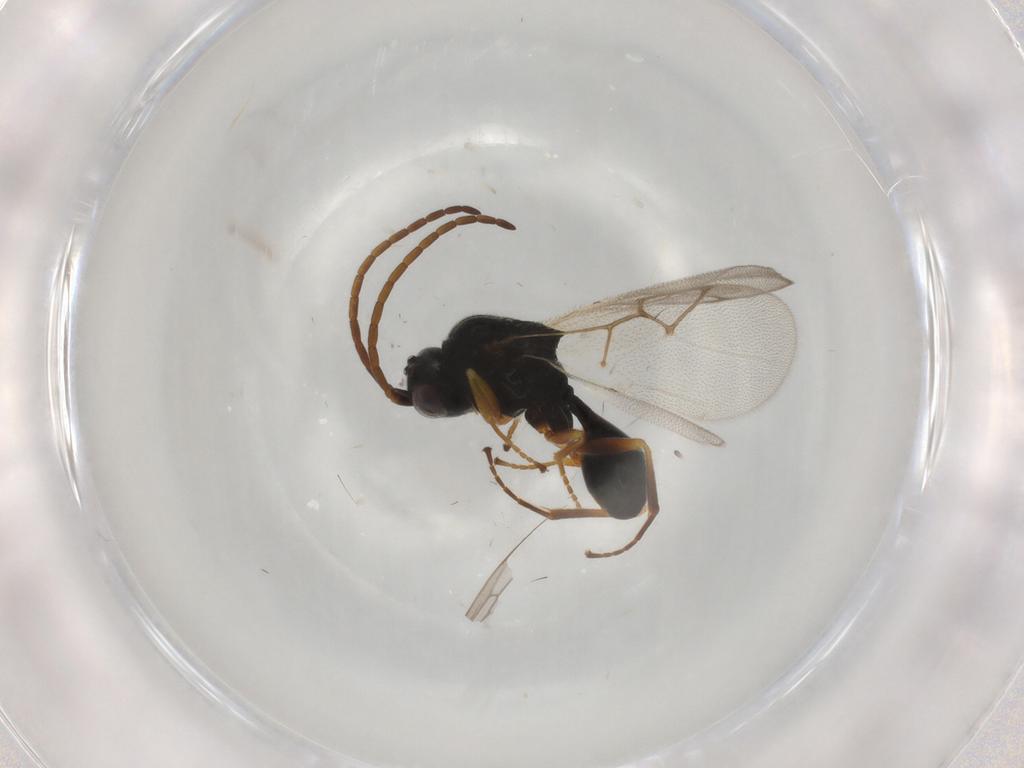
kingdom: Animalia
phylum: Arthropoda
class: Insecta
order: Hymenoptera
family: Figitidae
